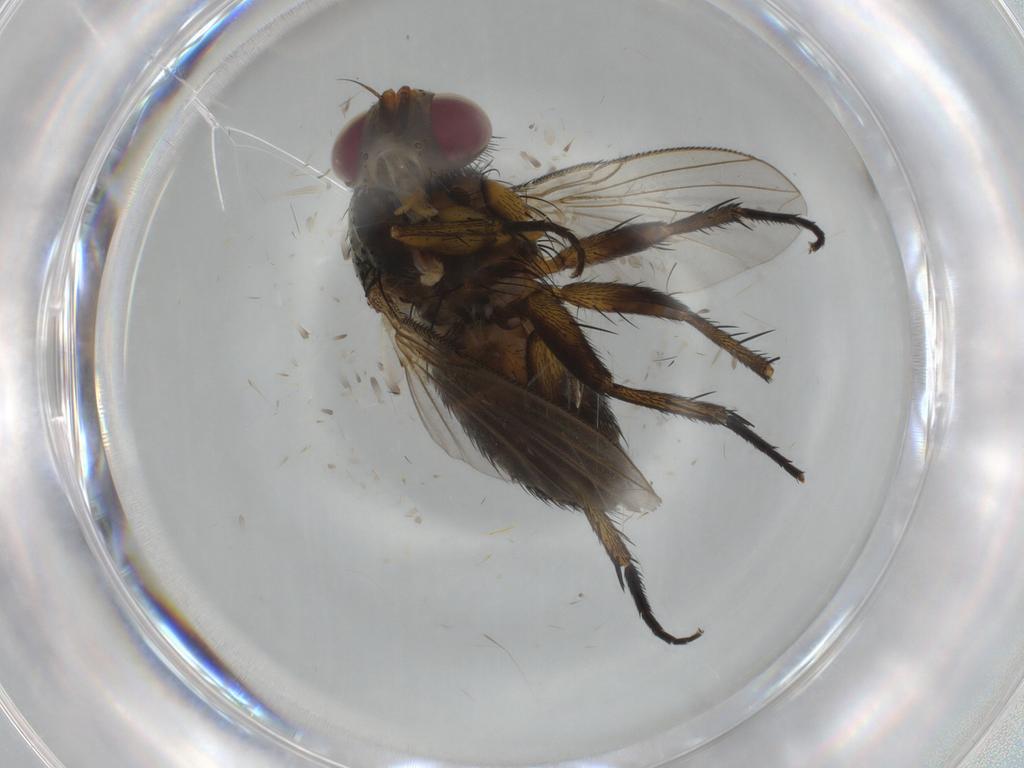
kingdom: Animalia
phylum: Arthropoda
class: Insecta
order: Diptera
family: Tachinidae
